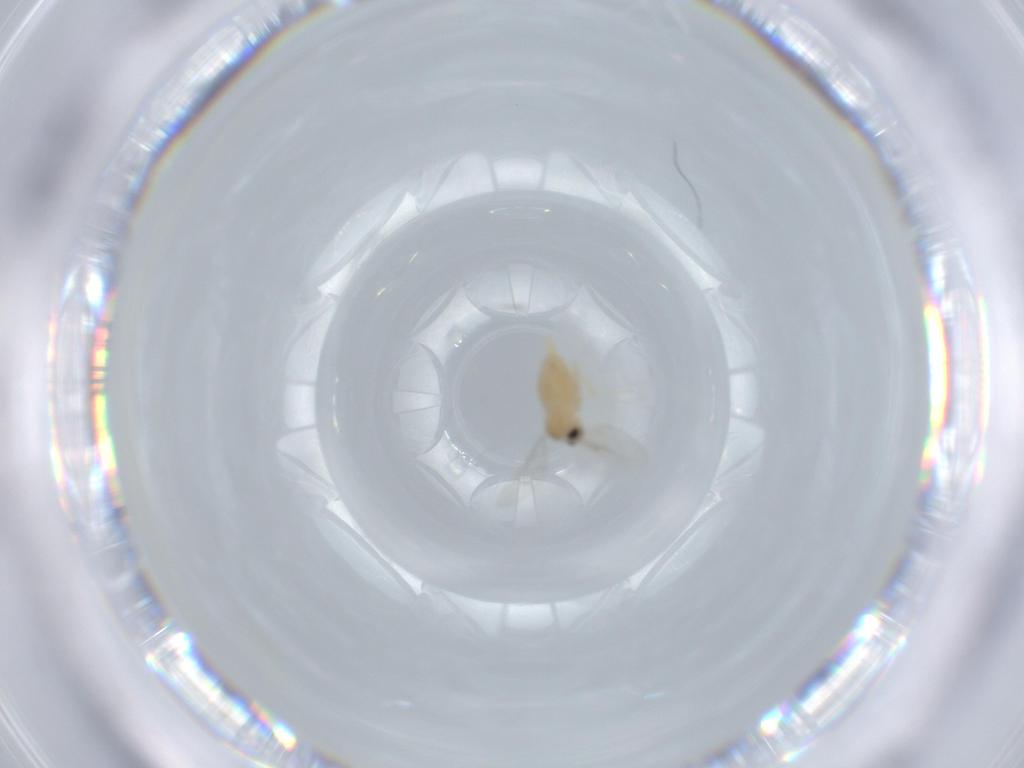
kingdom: Animalia
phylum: Arthropoda
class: Insecta
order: Diptera
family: Cecidomyiidae
